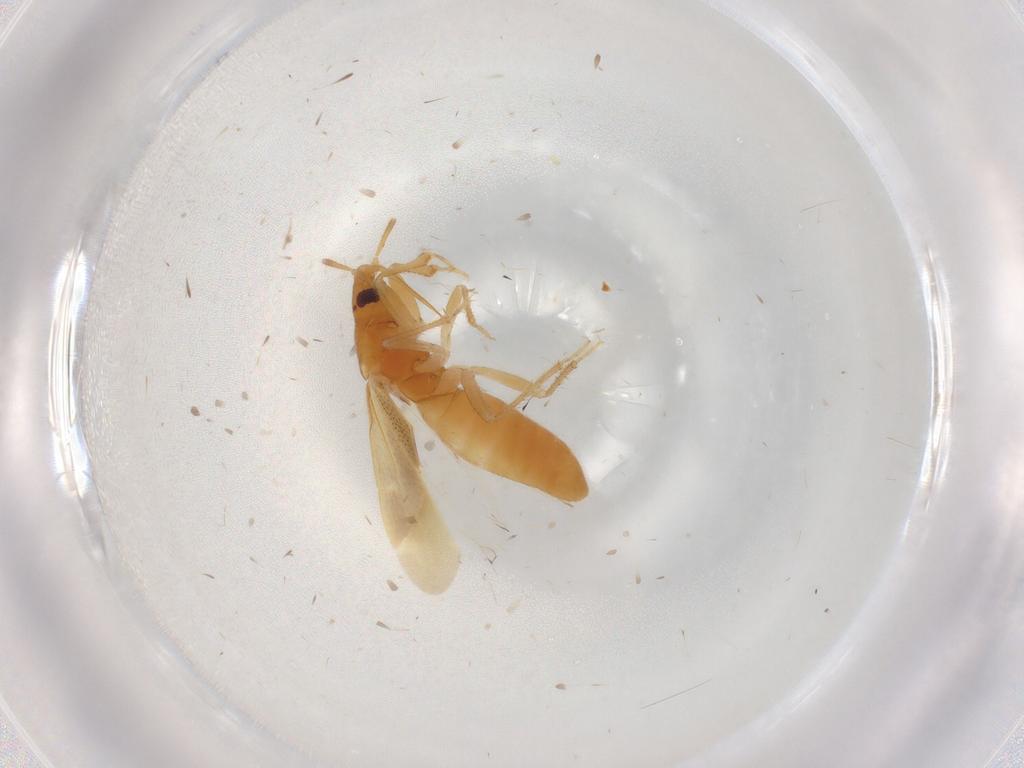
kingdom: Animalia
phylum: Arthropoda
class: Insecta
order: Hemiptera
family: Lasiochilidae
